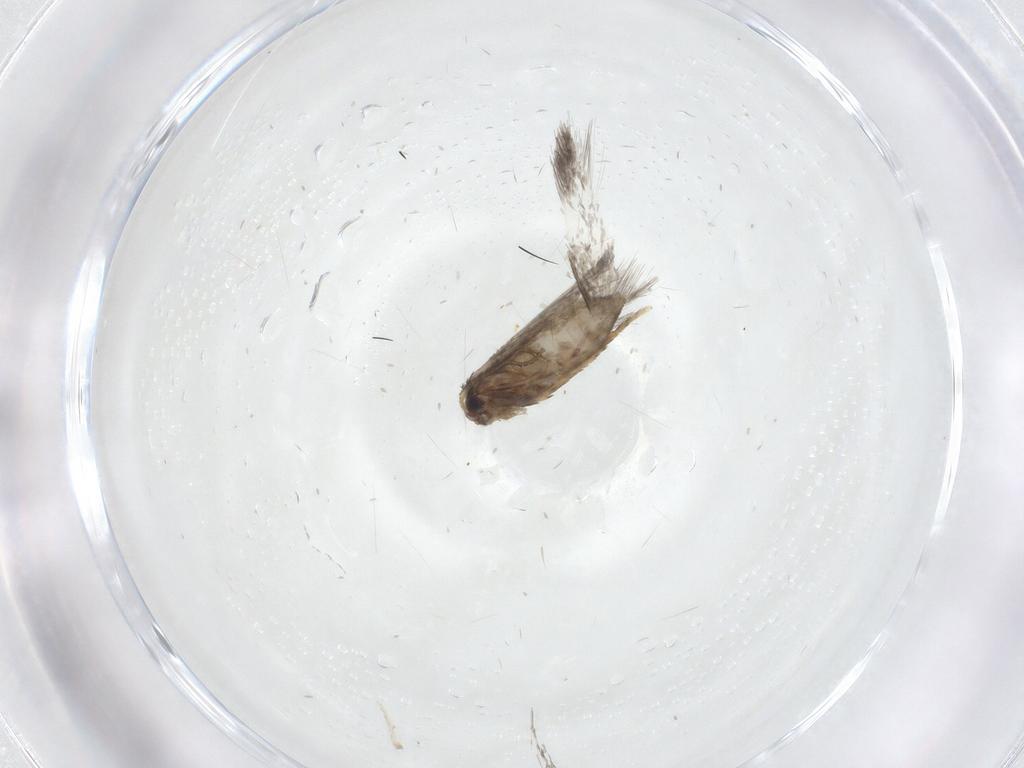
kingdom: Animalia
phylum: Arthropoda
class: Insecta
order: Lepidoptera
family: Nepticulidae
